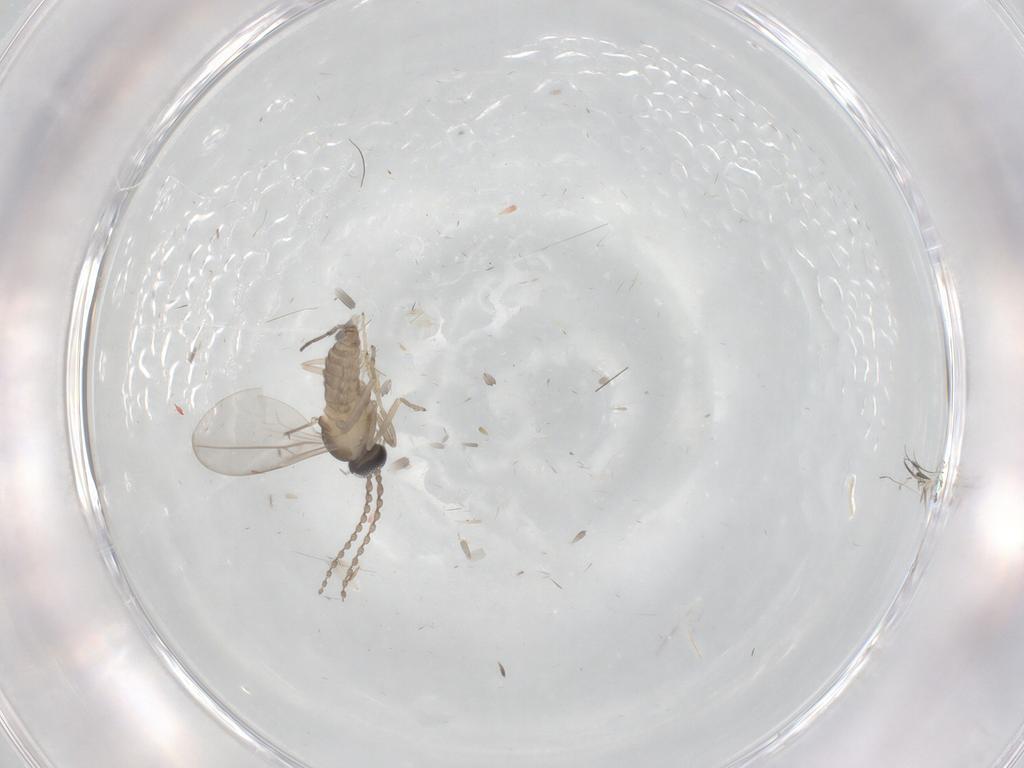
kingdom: Animalia
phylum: Arthropoda
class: Insecta
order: Diptera
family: Sciaridae
